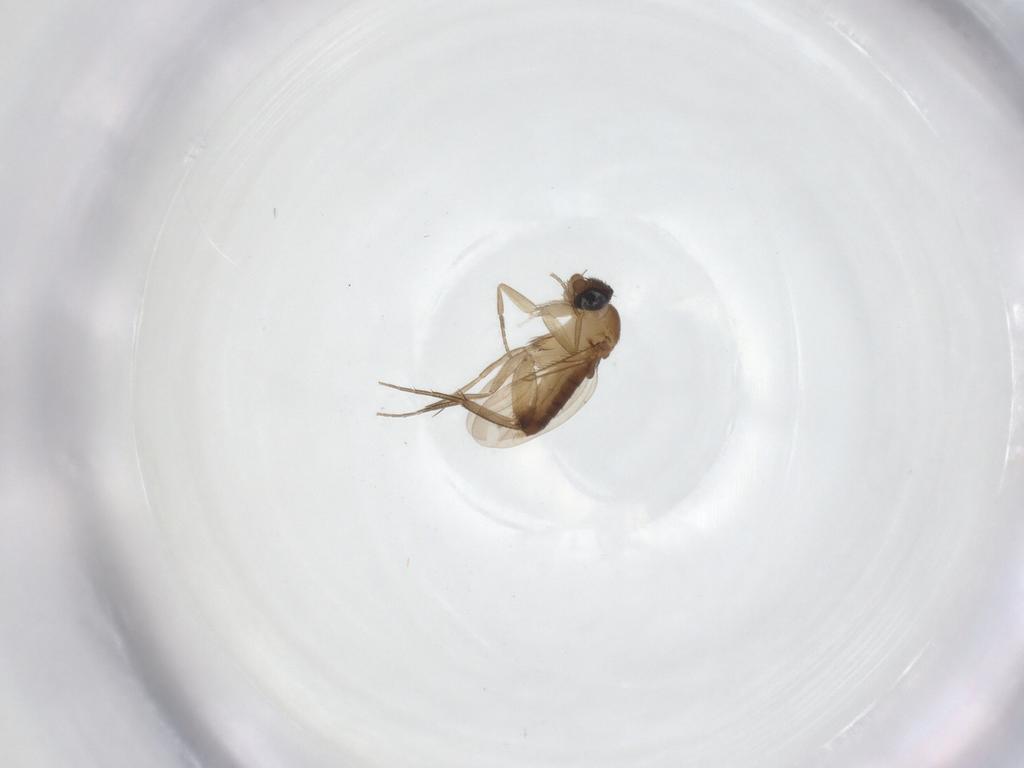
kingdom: Animalia
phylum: Arthropoda
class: Insecta
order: Diptera
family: Phoridae
